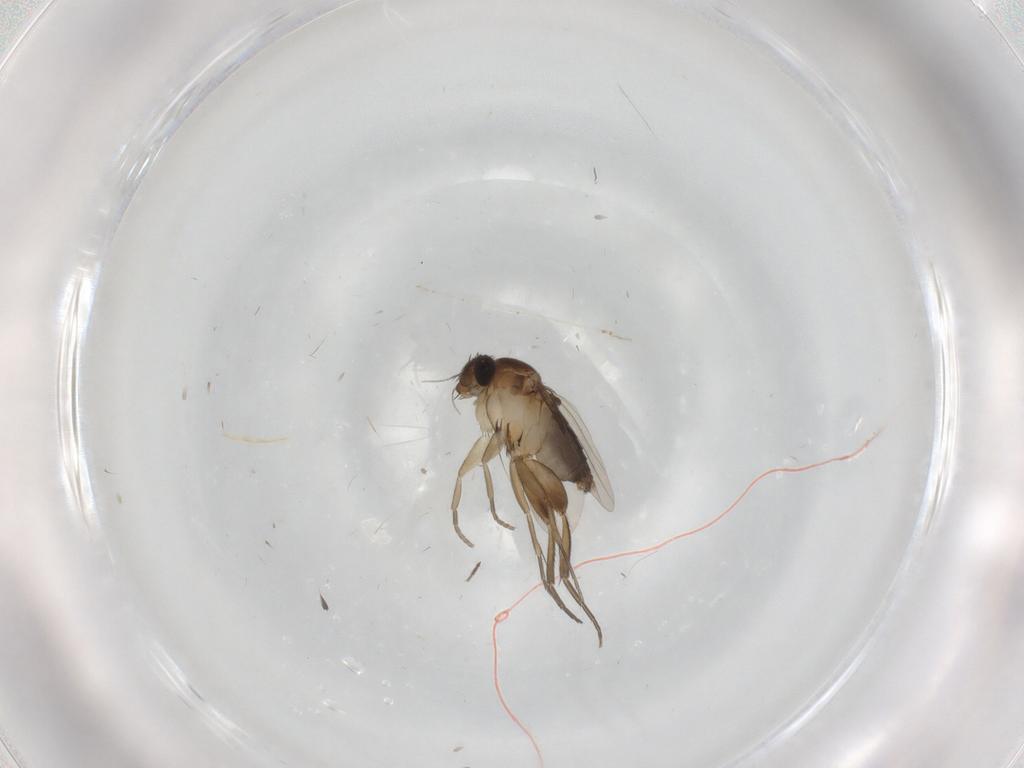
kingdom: Animalia
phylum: Arthropoda
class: Insecta
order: Diptera
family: Phoridae
